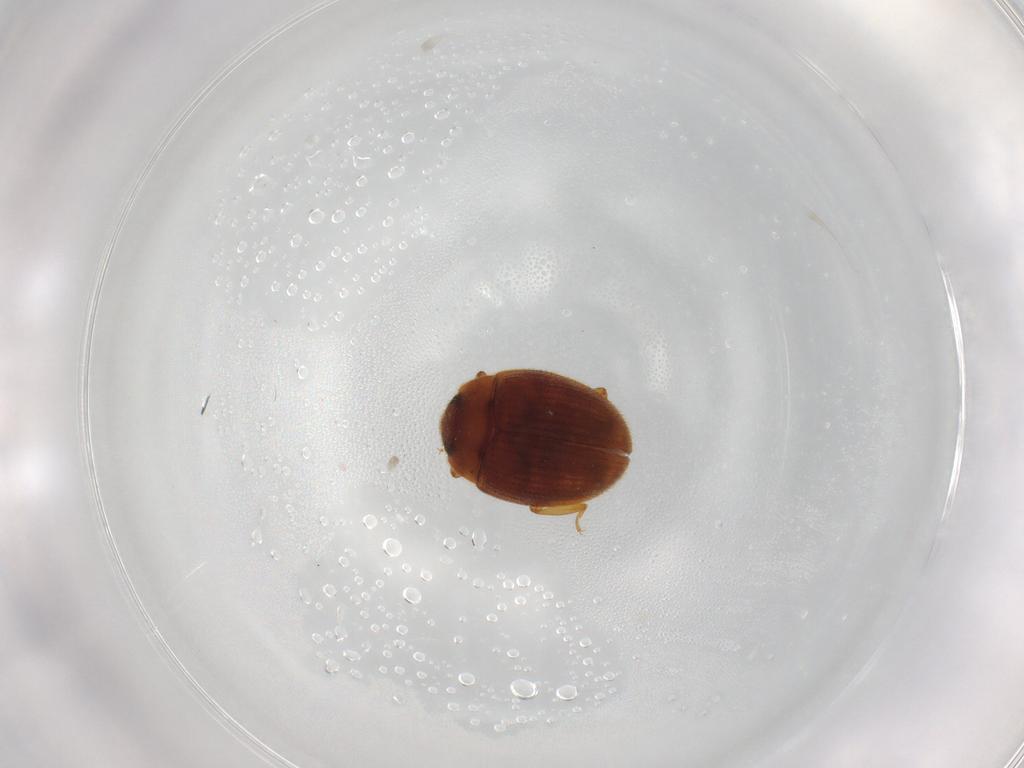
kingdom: Animalia
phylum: Arthropoda
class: Insecta
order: Coleoptera
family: Euxestidae
